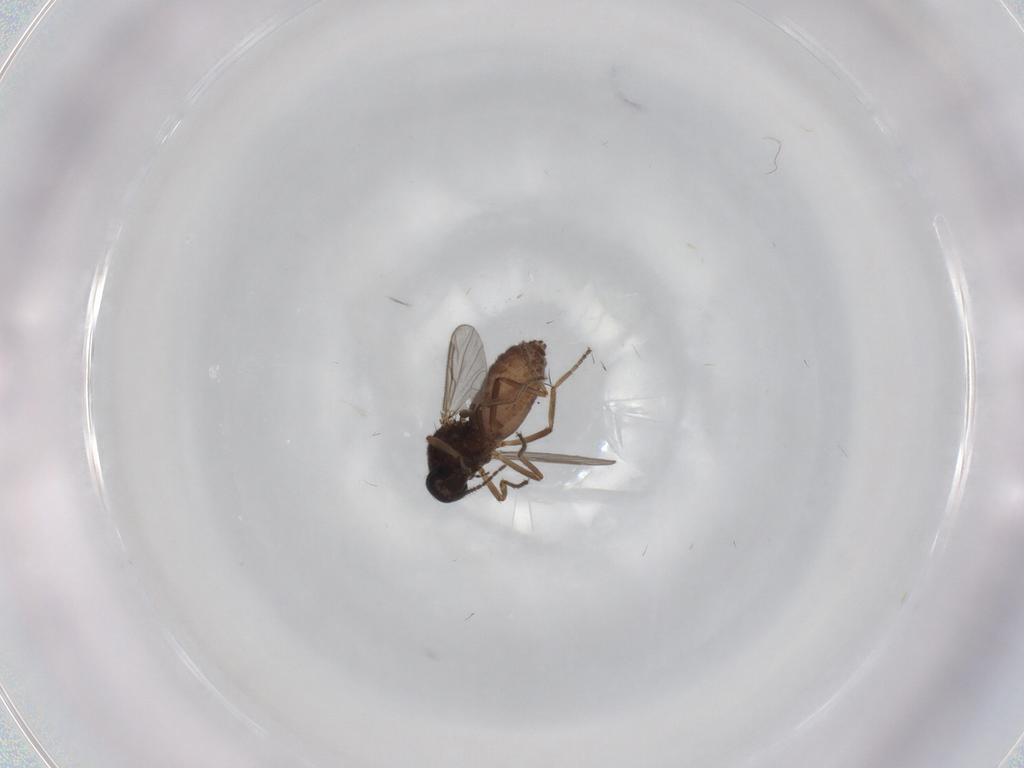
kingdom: Animalia
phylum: Arthropoda
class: Insecta
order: Diptera
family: Ceratopogonidae
